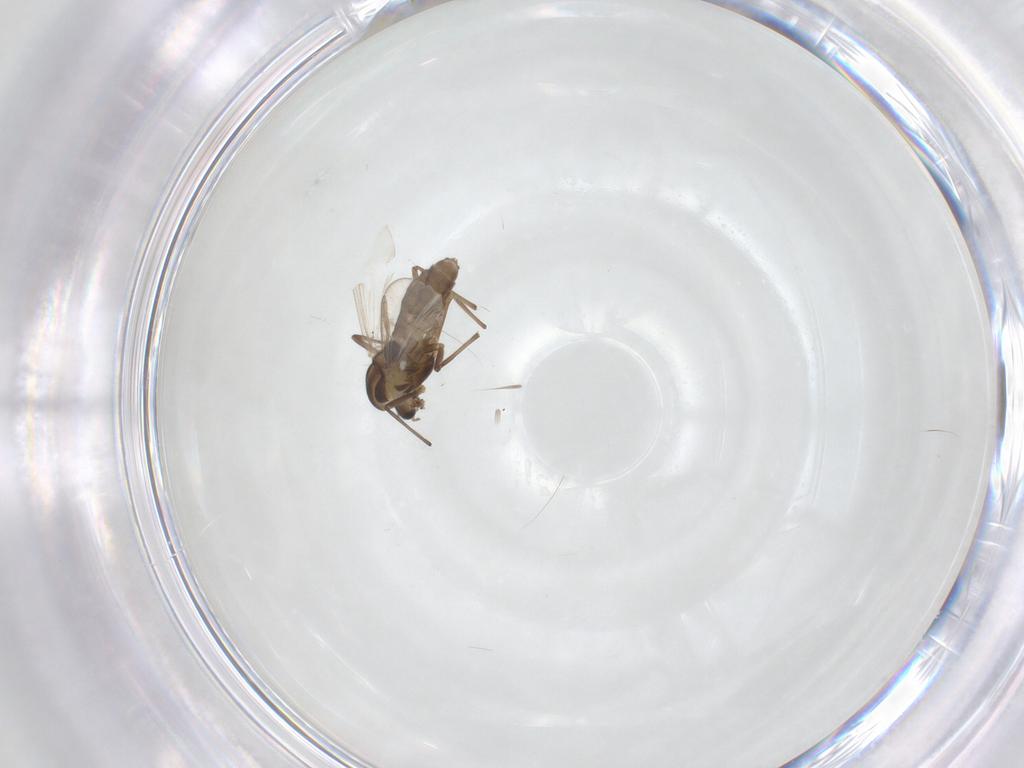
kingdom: Animalia
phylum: Arthropoda
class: Insecta
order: Diptera
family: Chironomidae
